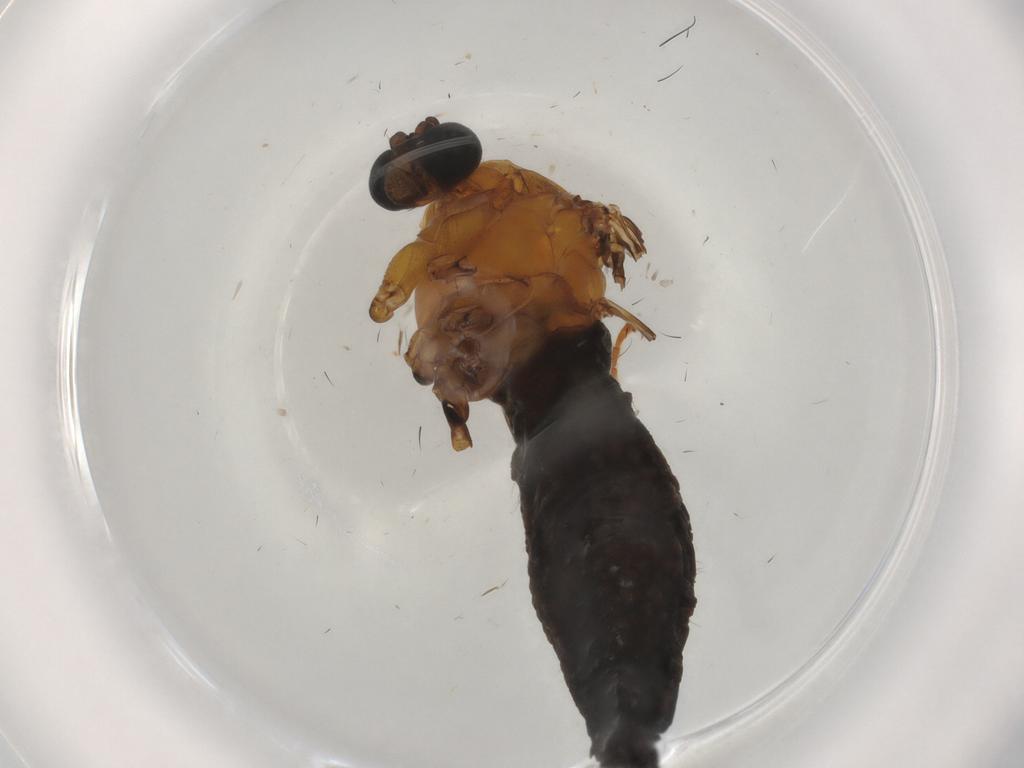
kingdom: Animalia
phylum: Arthropoda
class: Insecta
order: Diptera
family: Sciaridae
